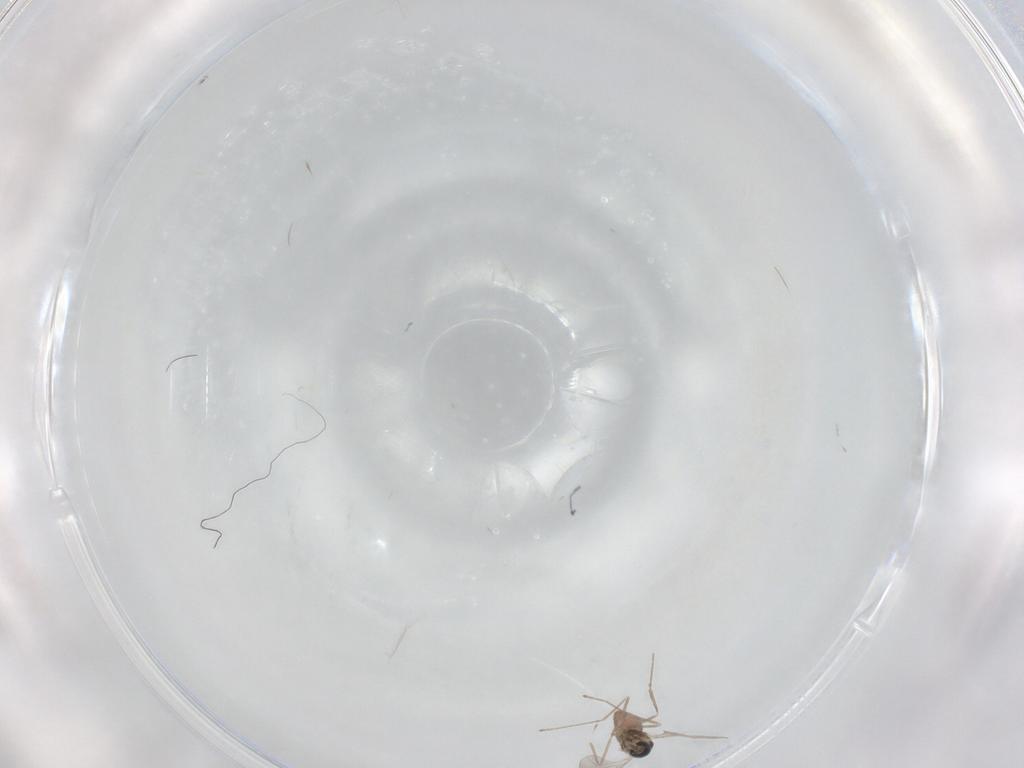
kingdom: Animalia
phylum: Arthropoda
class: Insecta
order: Diptera
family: Cecidomyiidae
